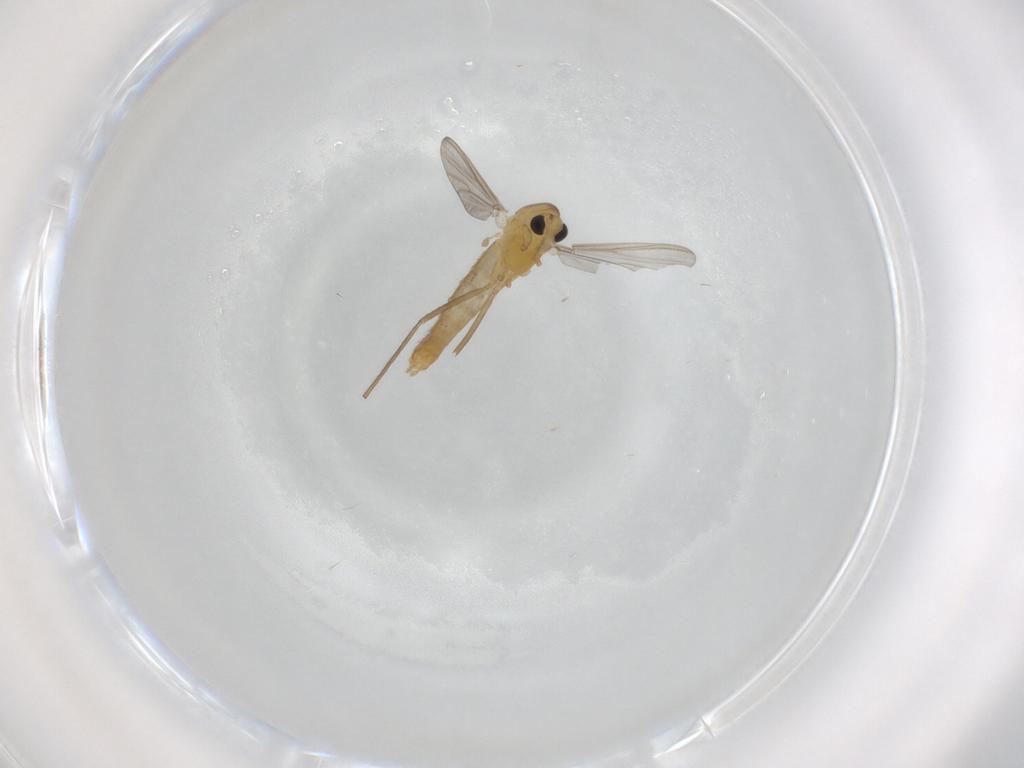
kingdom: Animalia
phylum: Arthropoda
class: Insecta
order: Diptera
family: Chironomidae
